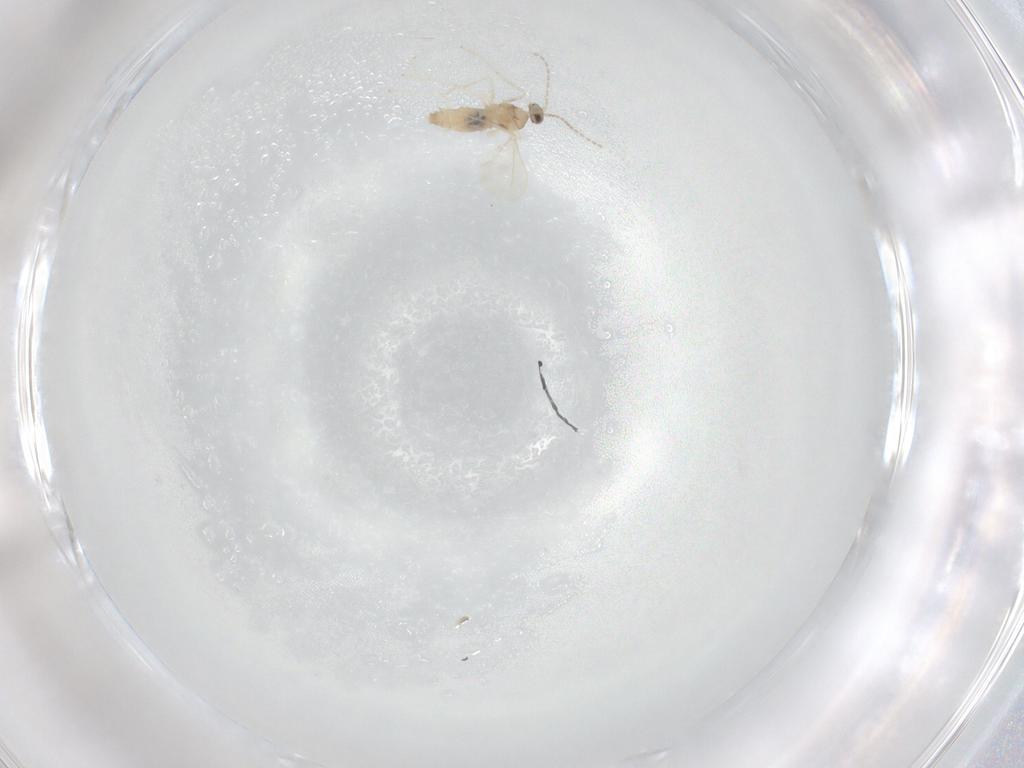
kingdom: Animalia
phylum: Arthropoda
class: Insecta
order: Diptera
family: Cecidomyiidae
